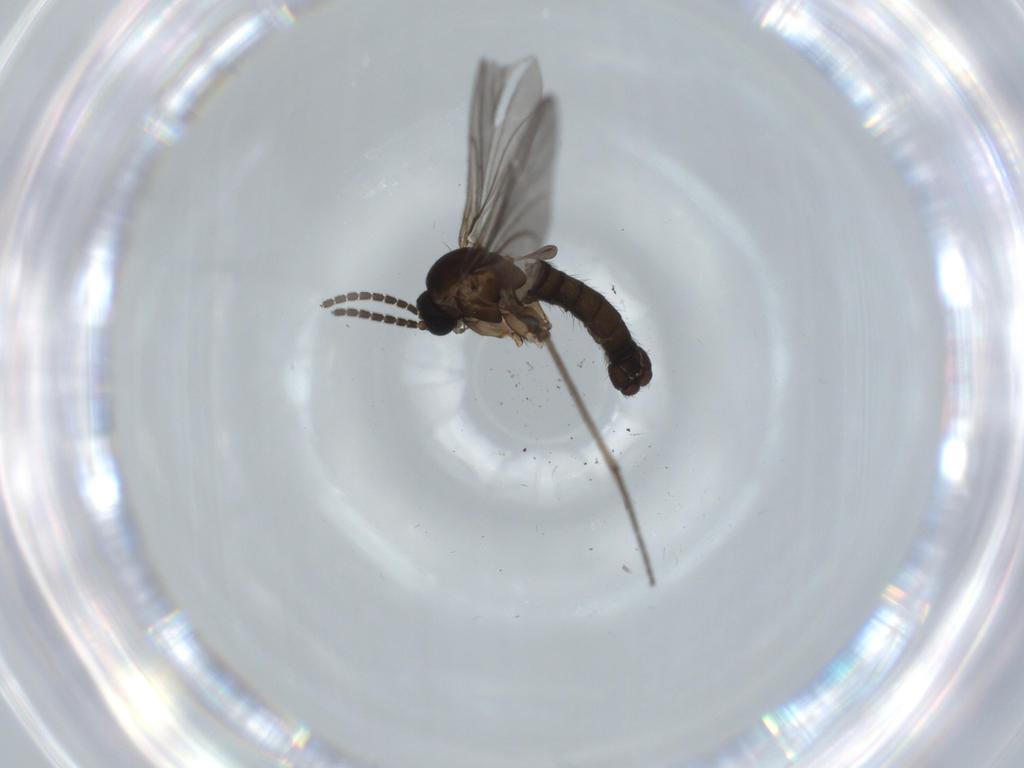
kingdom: Animalia
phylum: Arthropoda
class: Insecta
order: Diptera
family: Sciaridae
